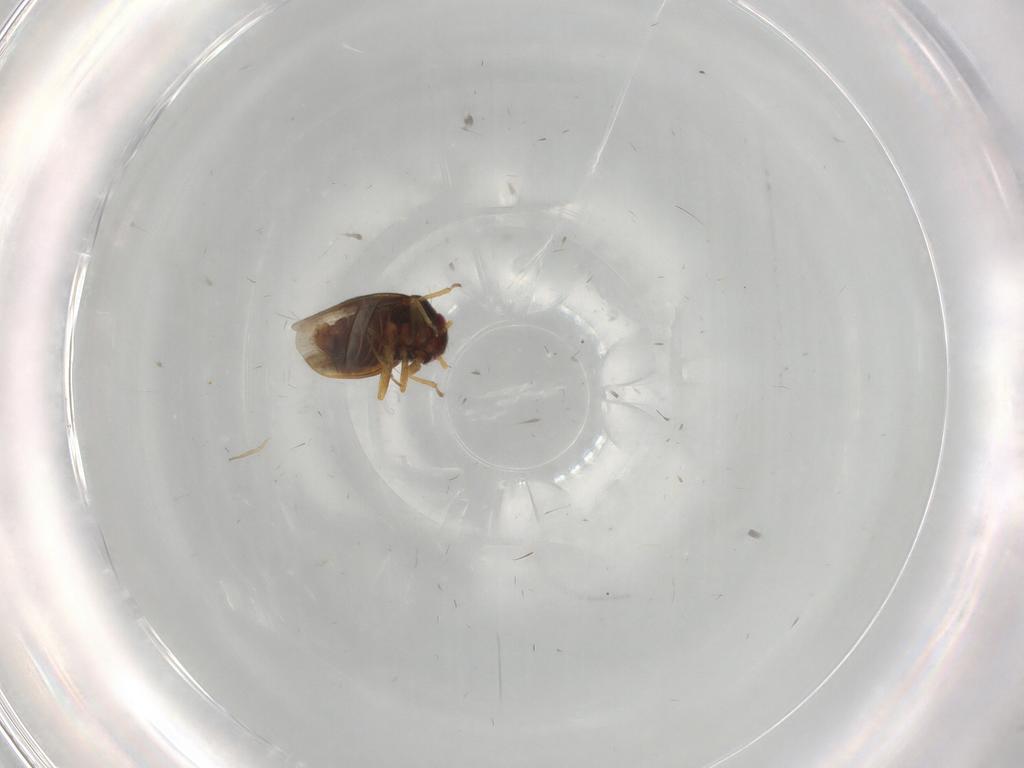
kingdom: Animalia
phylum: Arthropoda
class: Insecta
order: Hemiptera
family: Schizopteridae
